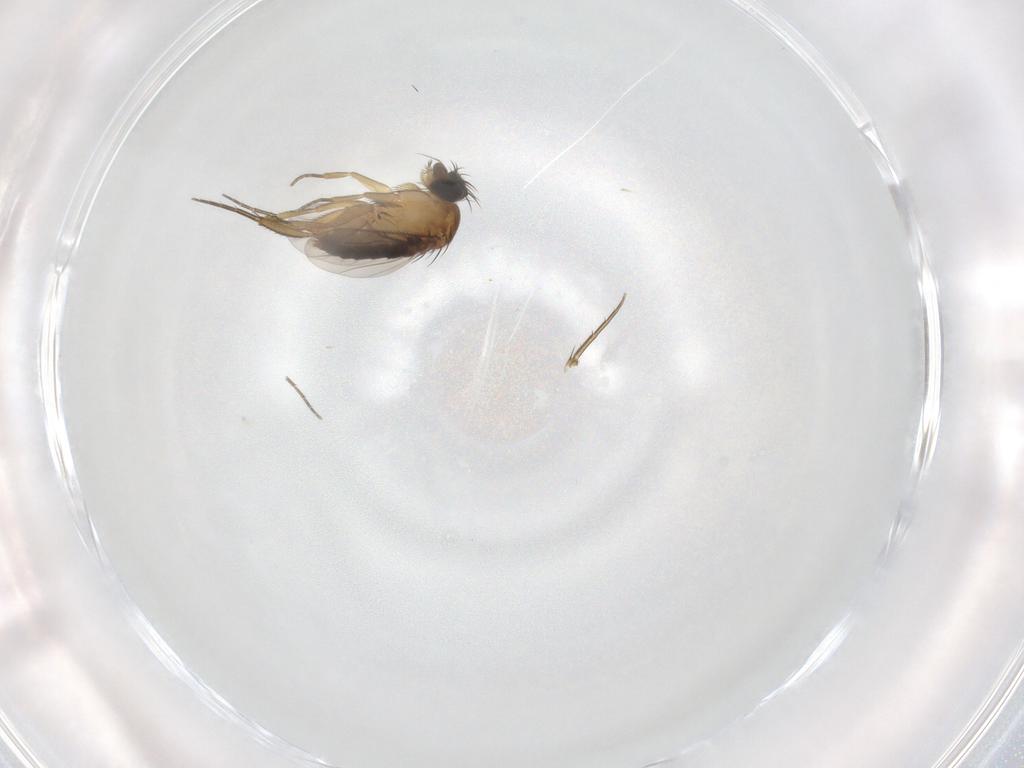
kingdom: Animalia
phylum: Arthropoda
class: Insecta
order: Diptera
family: Sciaridae
